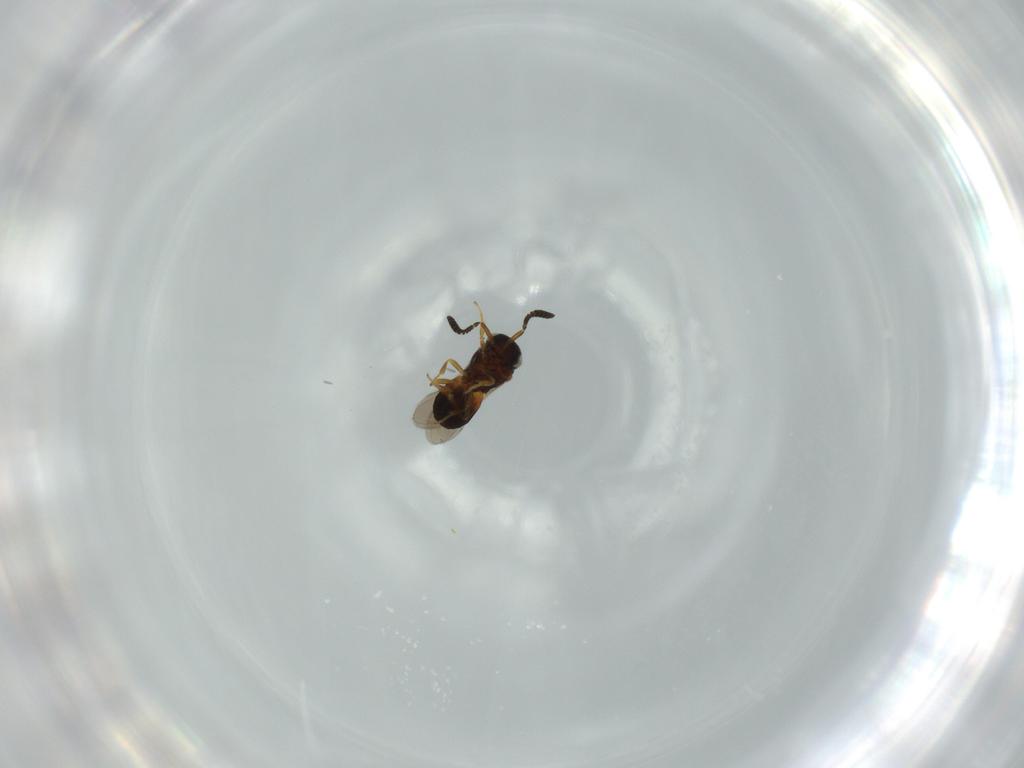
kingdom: Animalia
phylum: Arthropoda
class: Insecta
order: Hymenoptera
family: Scelionidae
